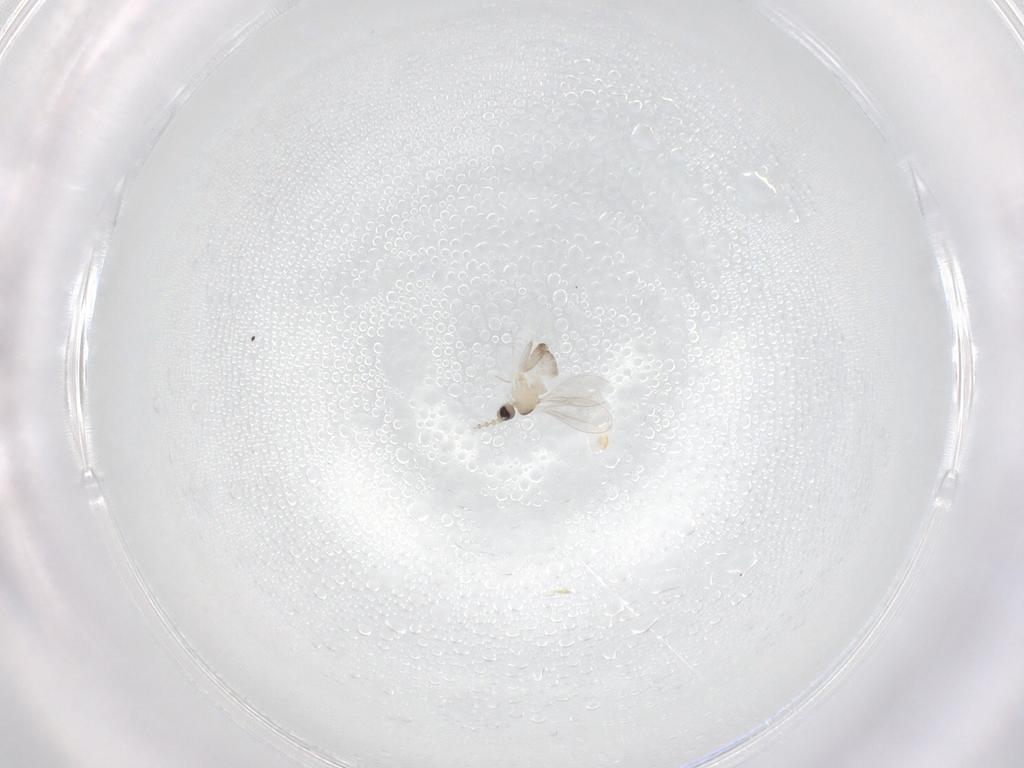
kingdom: Animalia
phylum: Arthropoda
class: Insecta
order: Diptera
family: Cecidomyiidae
